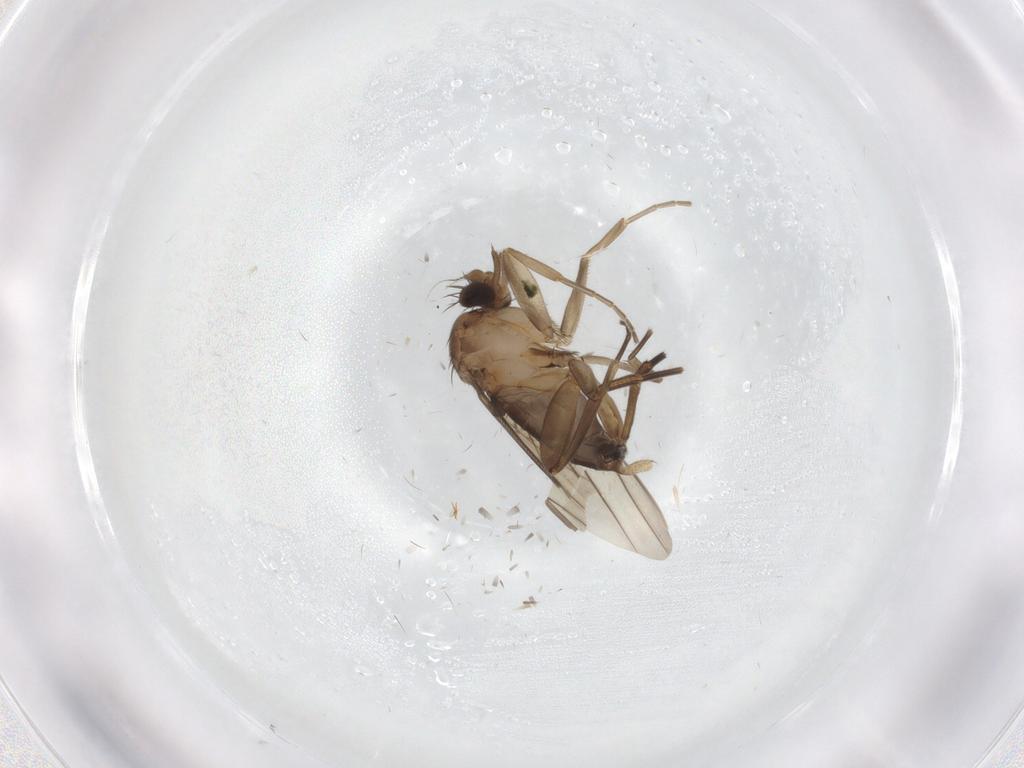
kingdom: Animalia
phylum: Arthropoda
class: Insecta
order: Diptera
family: Phoridae
